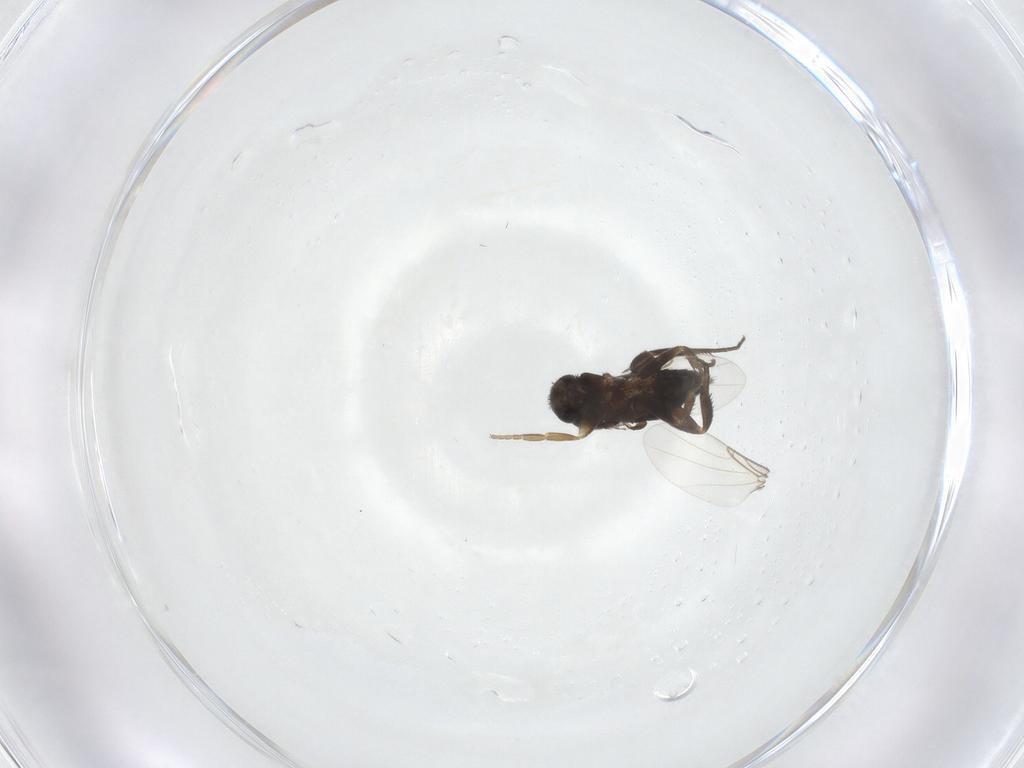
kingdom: Animalia
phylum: Arthropoda
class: Insecta
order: Diptera
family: Phoridae
